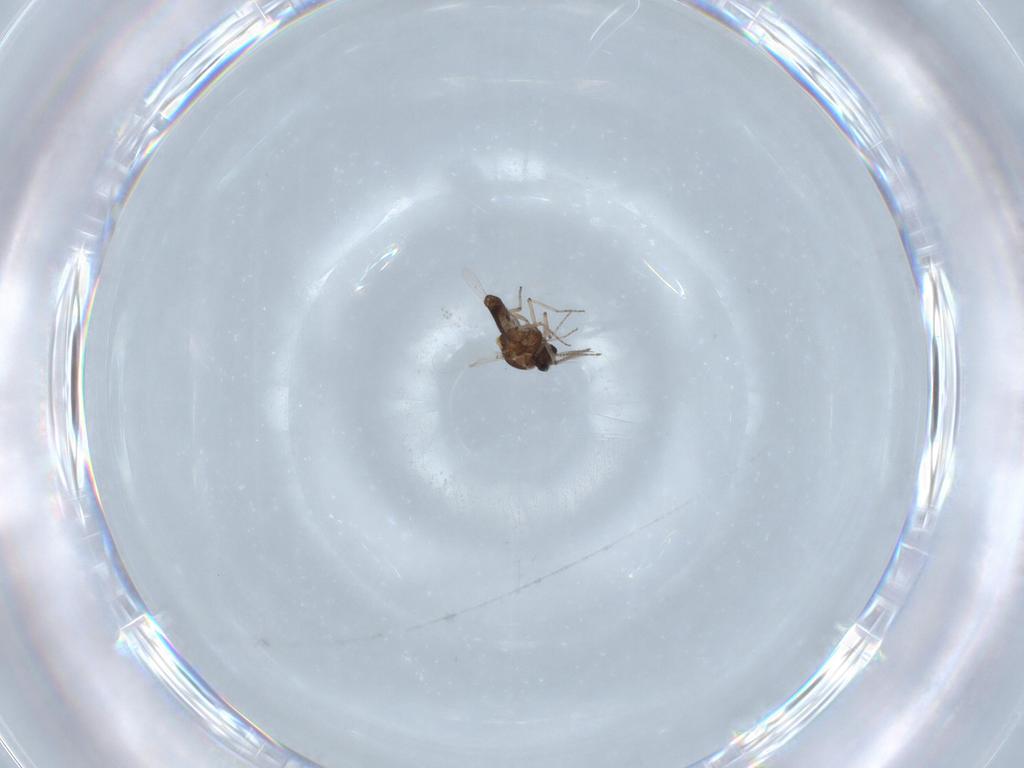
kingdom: Animalia
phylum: Arthropoda
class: Insecta
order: Diptera
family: Ceratopogonidae
